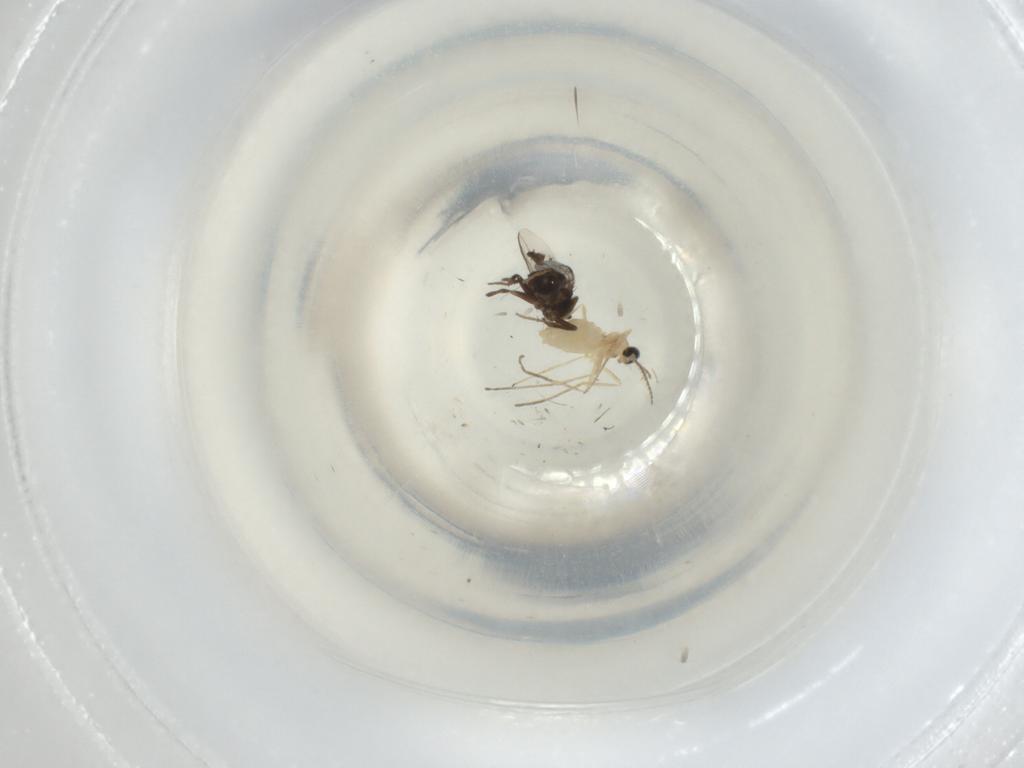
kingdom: Animalia
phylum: Arthropoda
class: Insecta
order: Diptera
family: Cecidomyiidae
